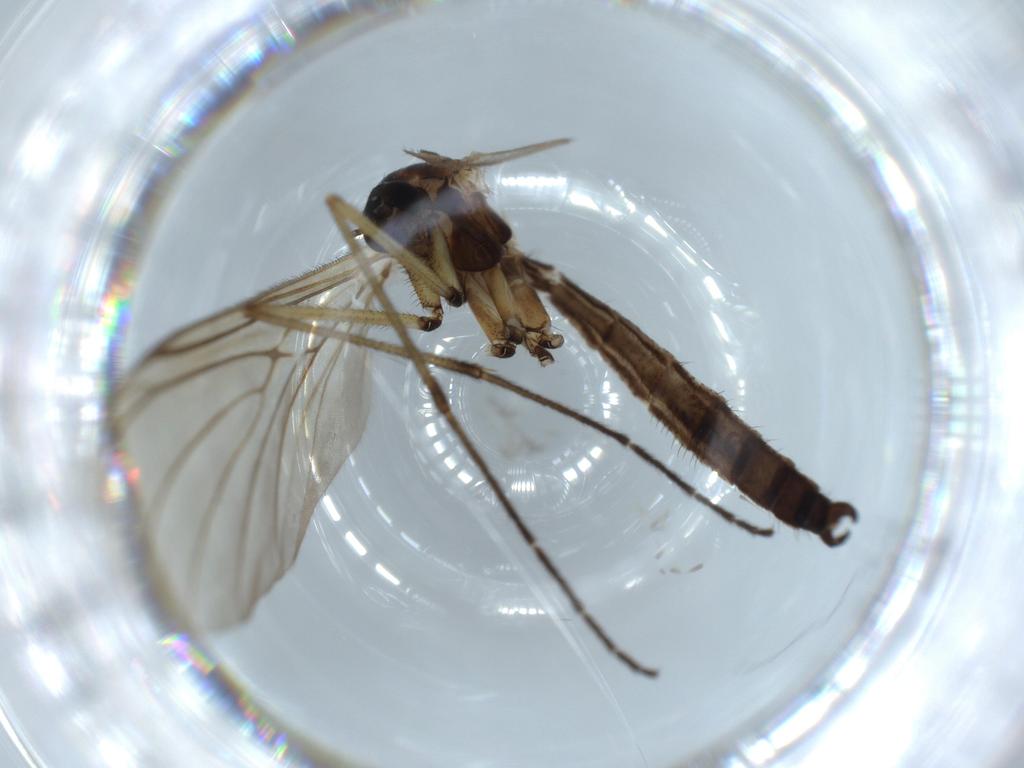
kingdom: Animalia
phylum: Arthropoda
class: Insecta
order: Diptera
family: Keroplatidae
